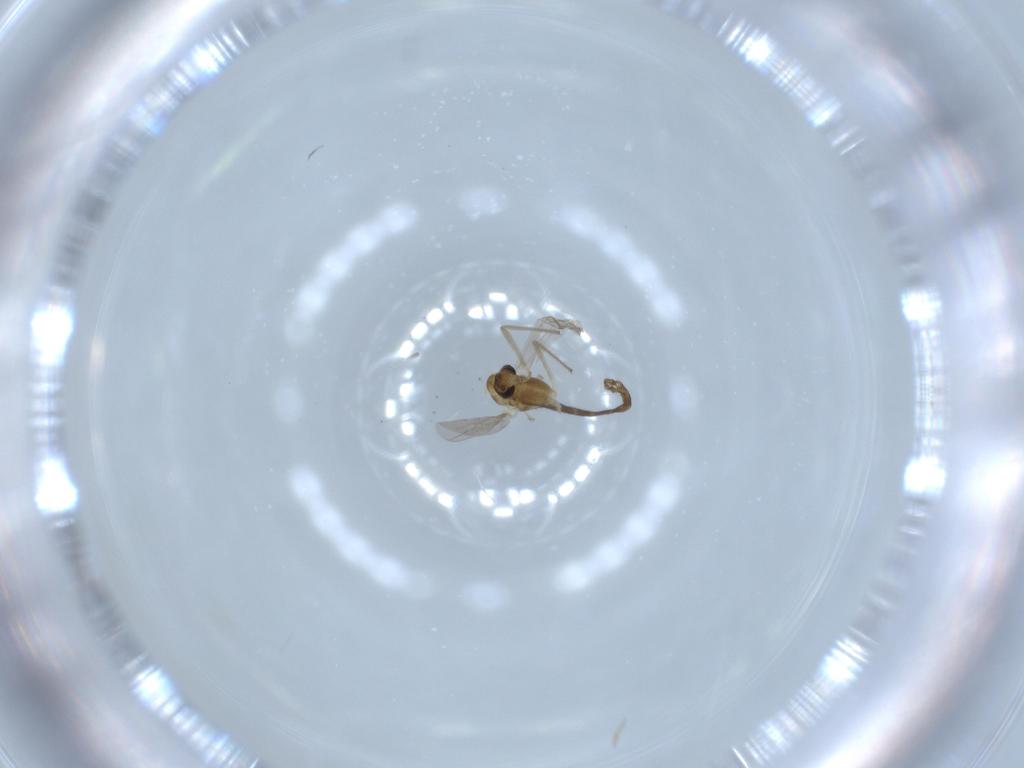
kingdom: Animalia
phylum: Arthropoda
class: Insecta
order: Diptera
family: Chironomidae
